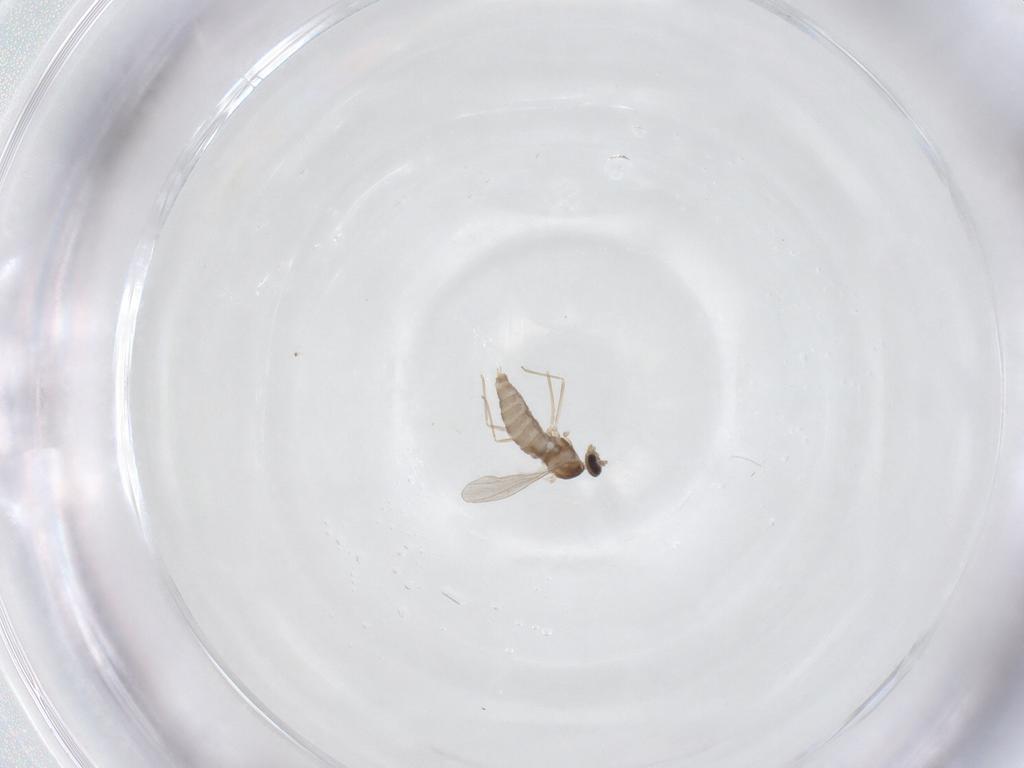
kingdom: Animalia
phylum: Arthropoda
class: Insecta
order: Diptera
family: Cecidomyiidae
